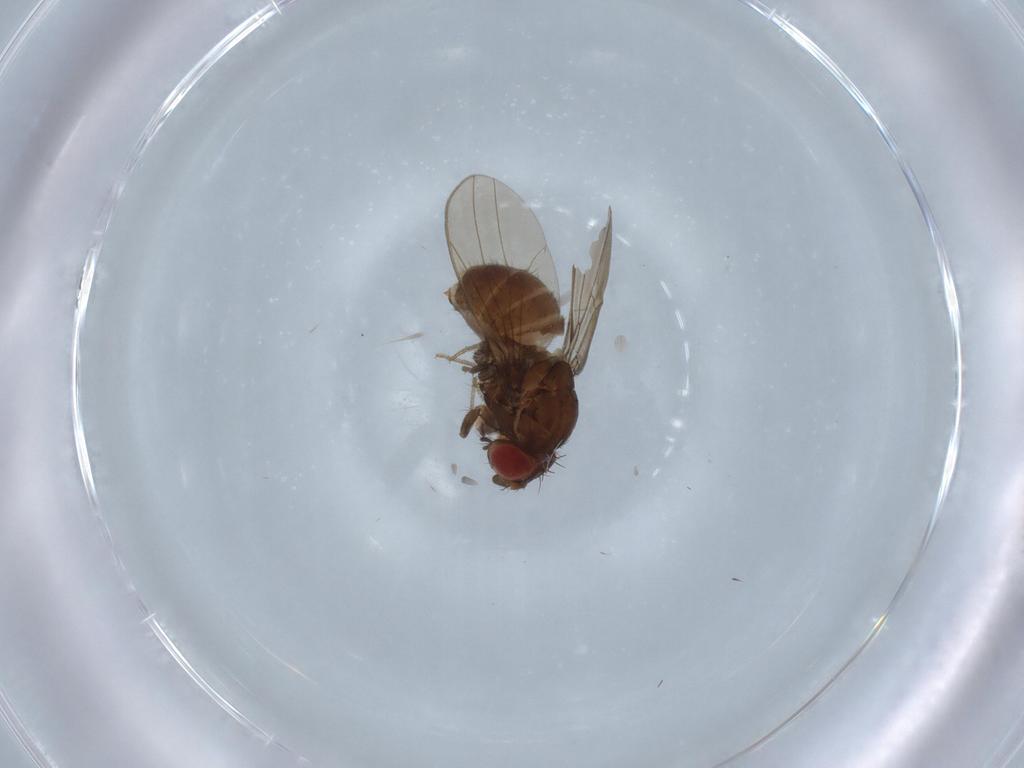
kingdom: Animalia
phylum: Arthropoda
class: Insecta
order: Diptera
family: Drosophilidae
